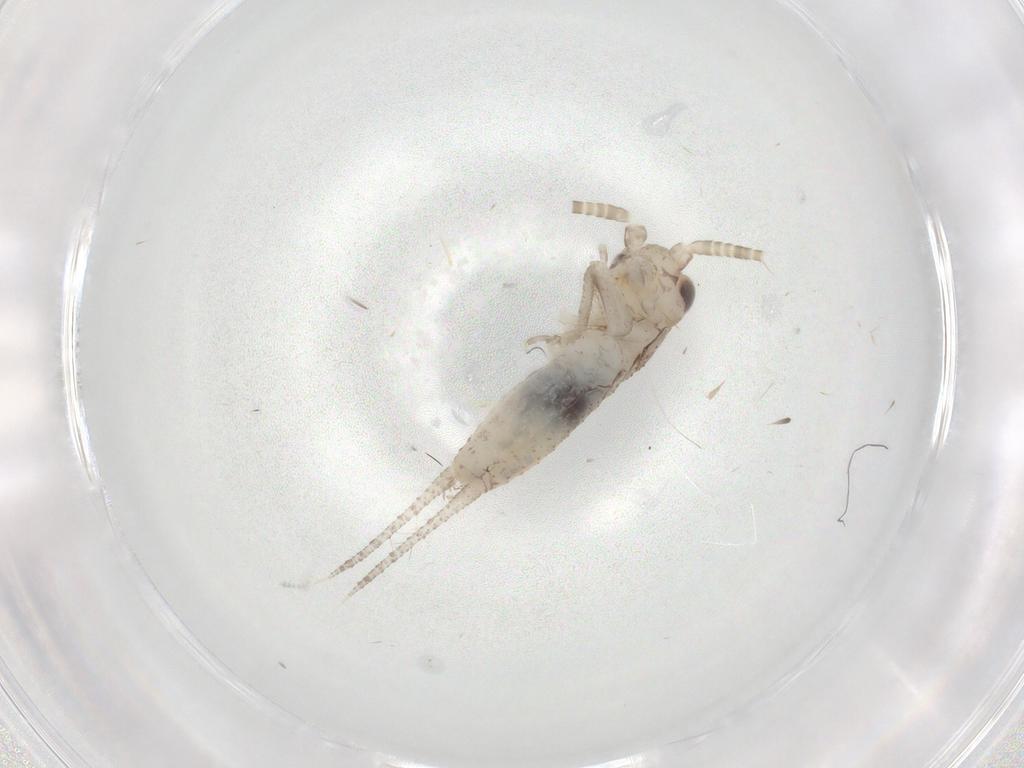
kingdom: Animalia
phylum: Arthropoda
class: Insecta
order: Orthoptera
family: Gryllidae
